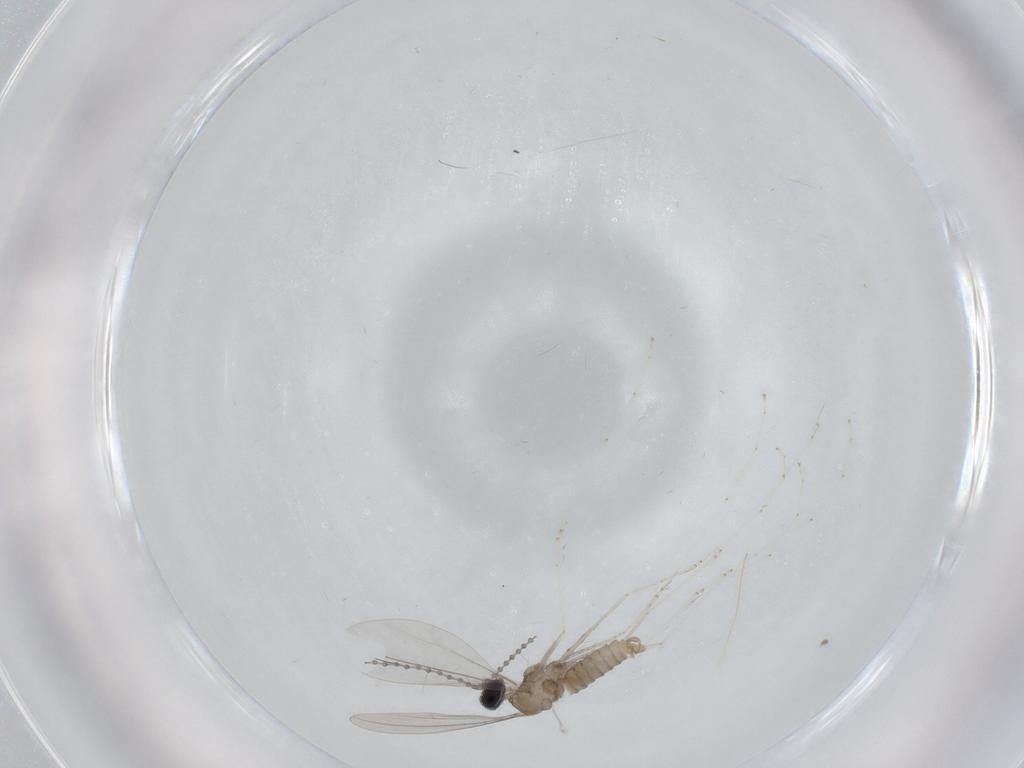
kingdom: Animalia
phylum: Arthropoda
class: Insecta
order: Diptera
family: Cecidomyiidae
